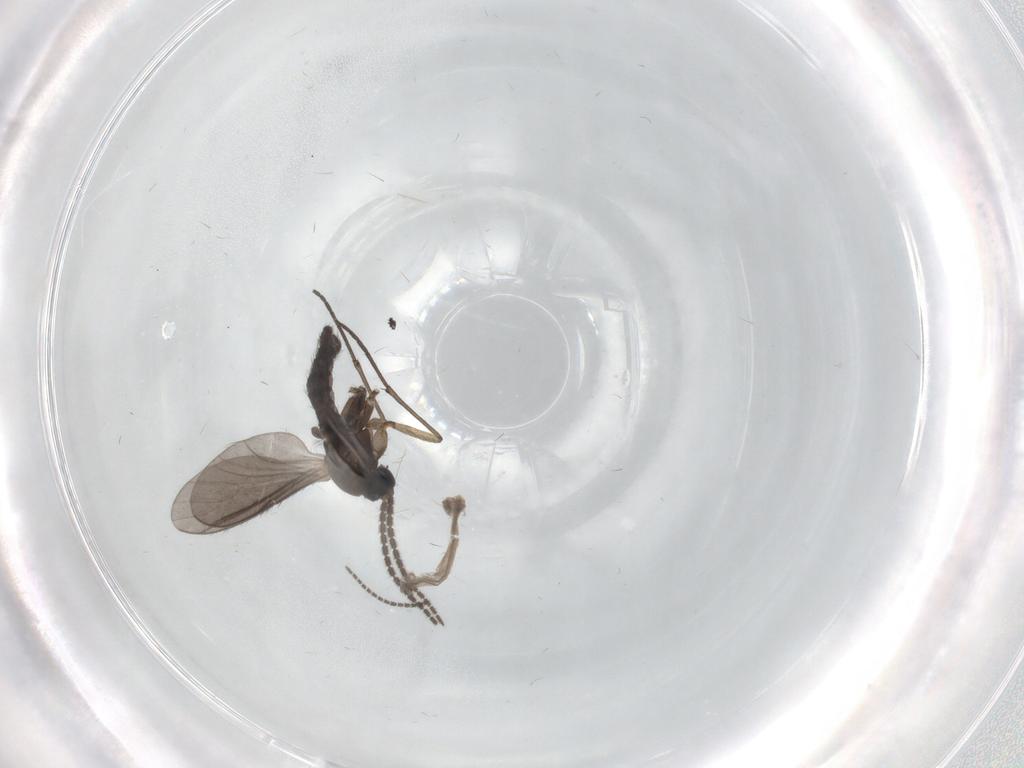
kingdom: Animalia
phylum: Arthropoda
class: Insecta
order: Diptera
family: Sciaridae
